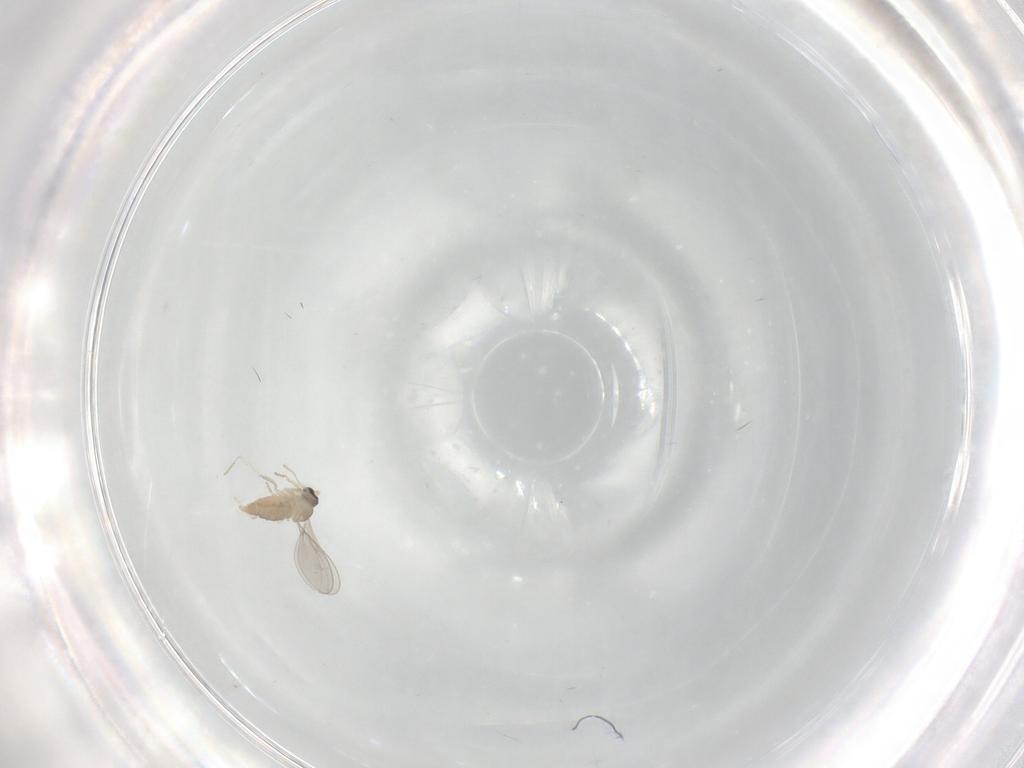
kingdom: Animalia
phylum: Arthropoda
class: Insecta
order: Diptera
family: Cecidomyiidae
